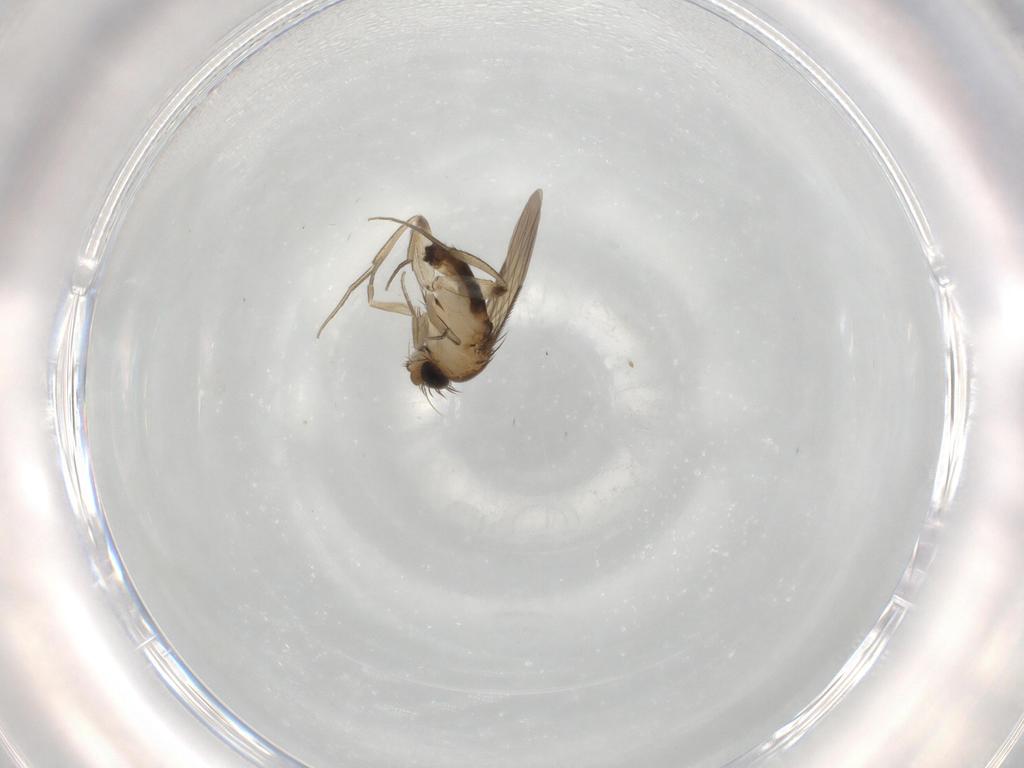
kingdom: Animalia
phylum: Arthropoda
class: Insecta
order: Diptera
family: Phoridae
